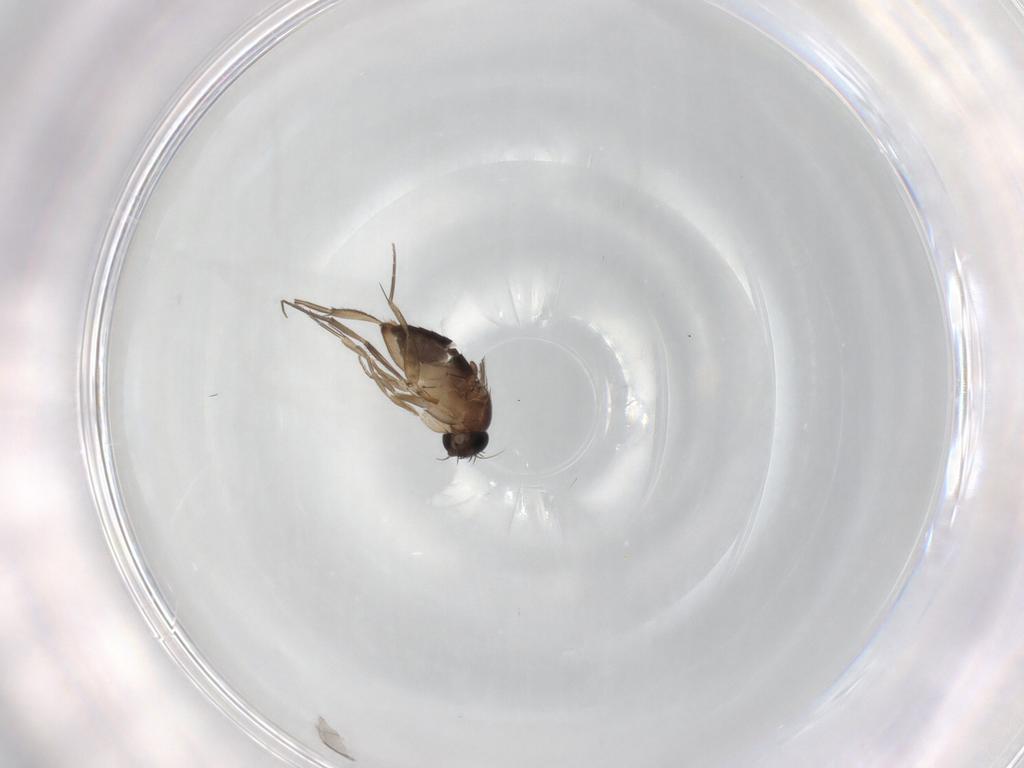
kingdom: Animalia
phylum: Arthropoda
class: Insecta
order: Diptera
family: Phoridae
